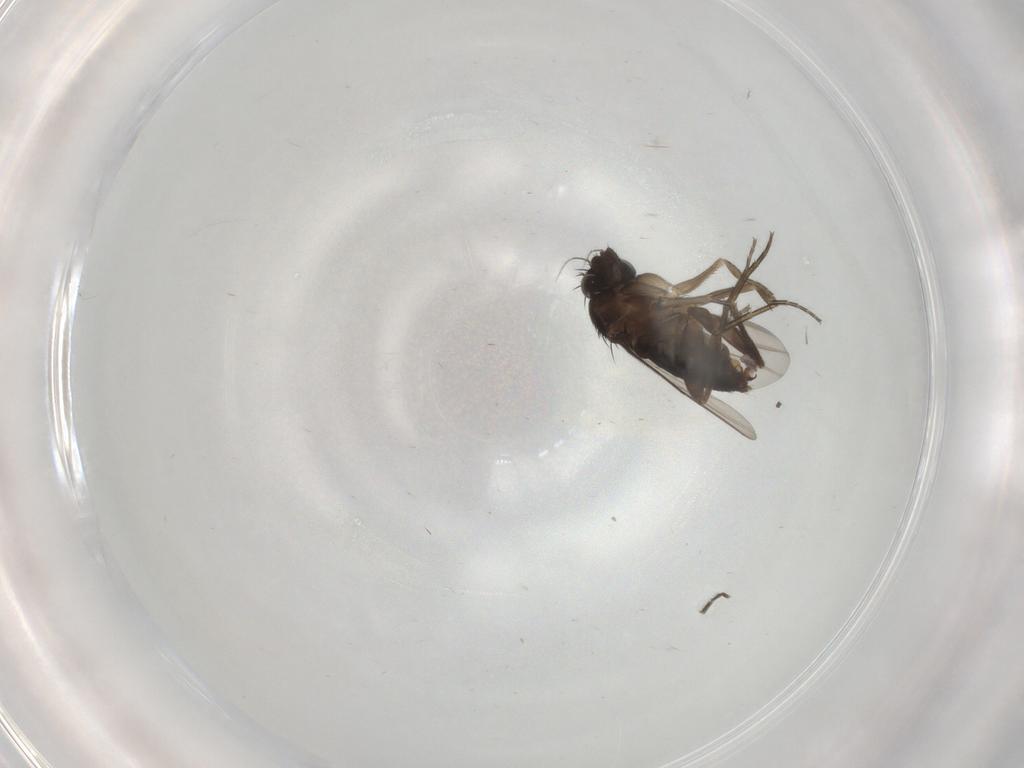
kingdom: Animalia
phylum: Arthropoda
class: Insecta
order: Diptera
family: Phoridae
